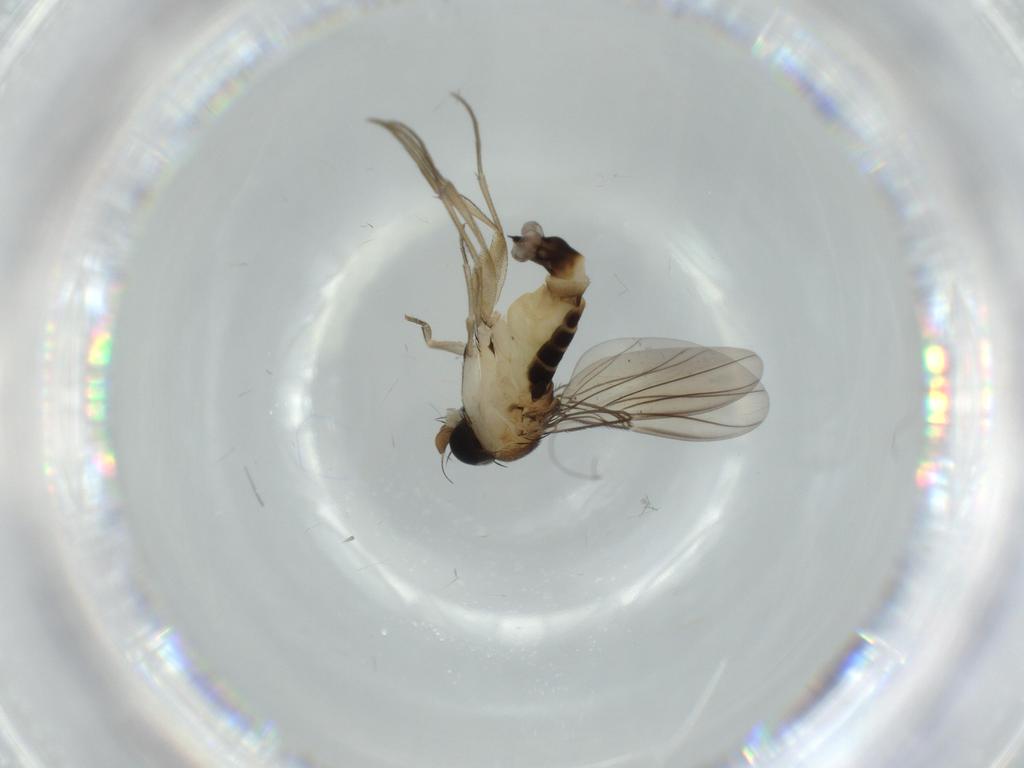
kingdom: Animalia
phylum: Arthropoda
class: Insecta
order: Diptera
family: Phoridae
